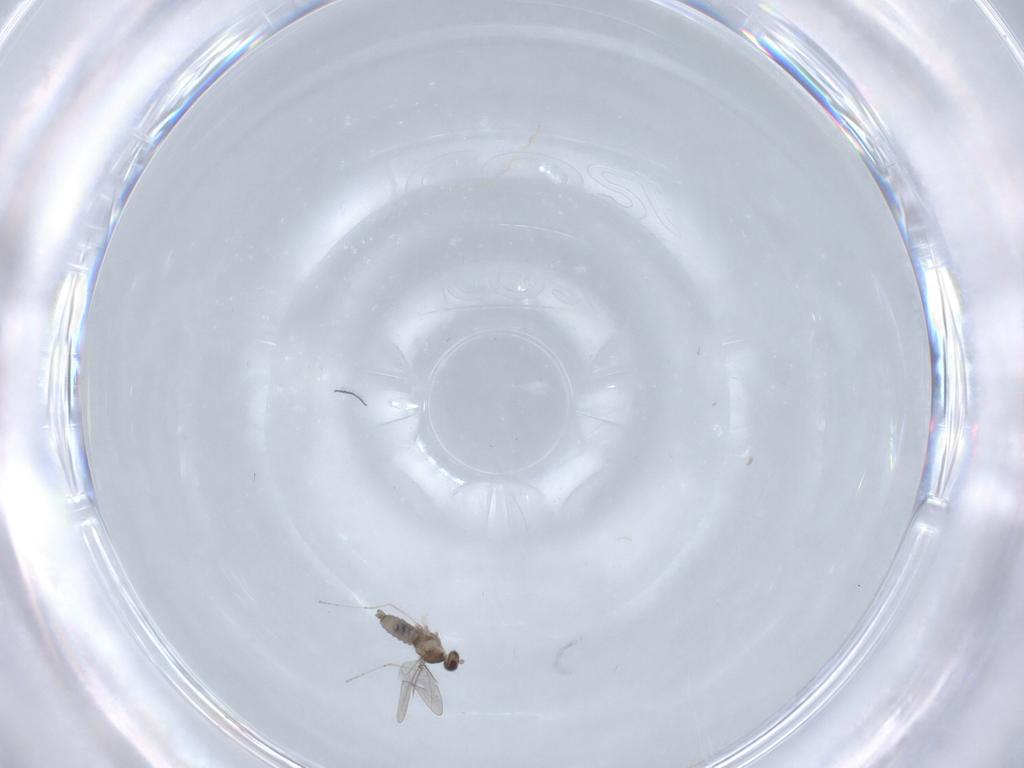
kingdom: Animalia
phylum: Arthropoda
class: Insecta
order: Diptera
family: Cecidomyiidae
